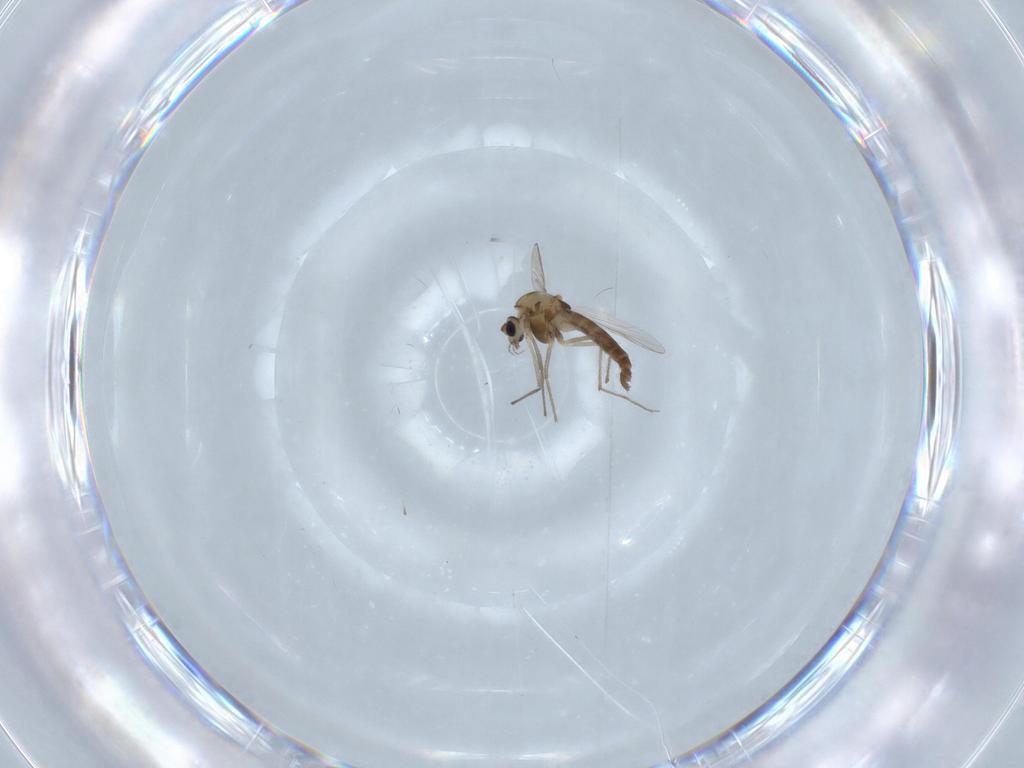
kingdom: Animalia
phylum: Arthropoda
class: Insecta
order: Diptera
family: Chironomidae
